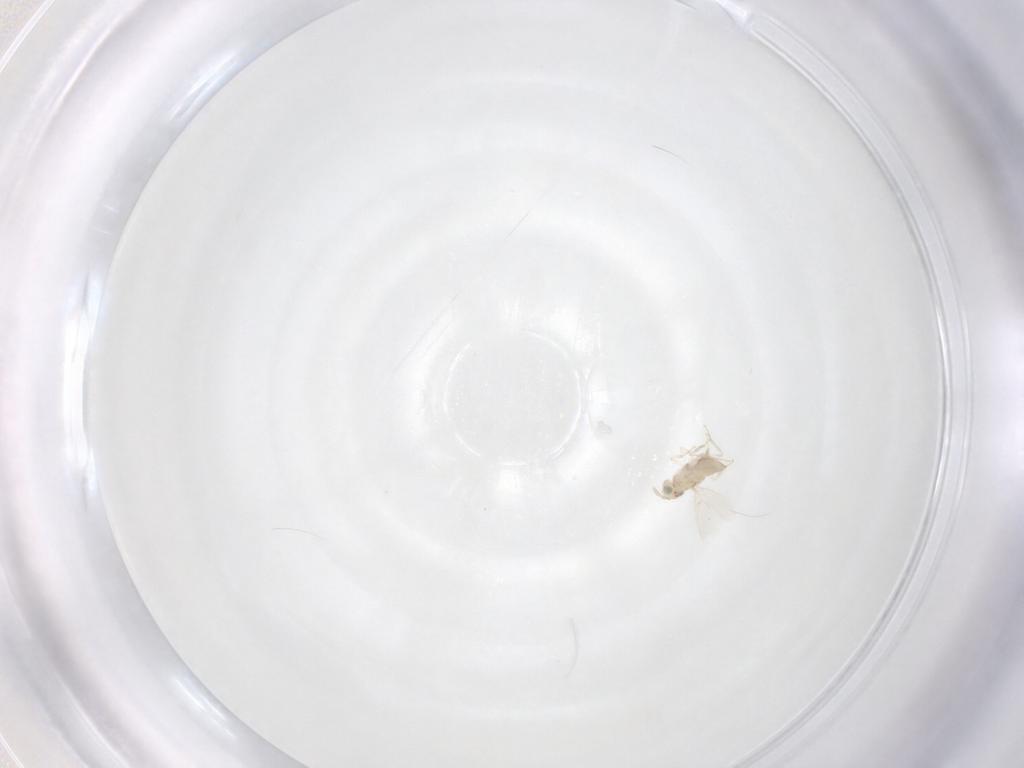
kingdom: Animalia
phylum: Arthropoda
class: Insecta
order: Hymenoptera
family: Aphelinidae
